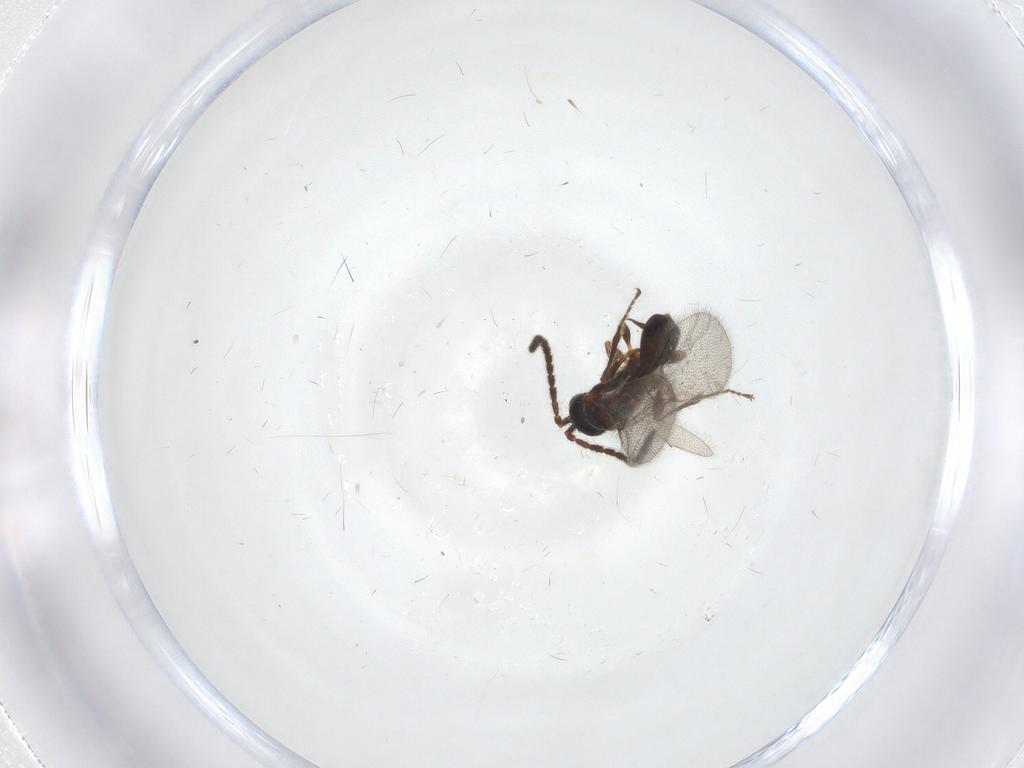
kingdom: Animalia
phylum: Arthropoda
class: Insecta
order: Hymenoptera
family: Diapriidae
